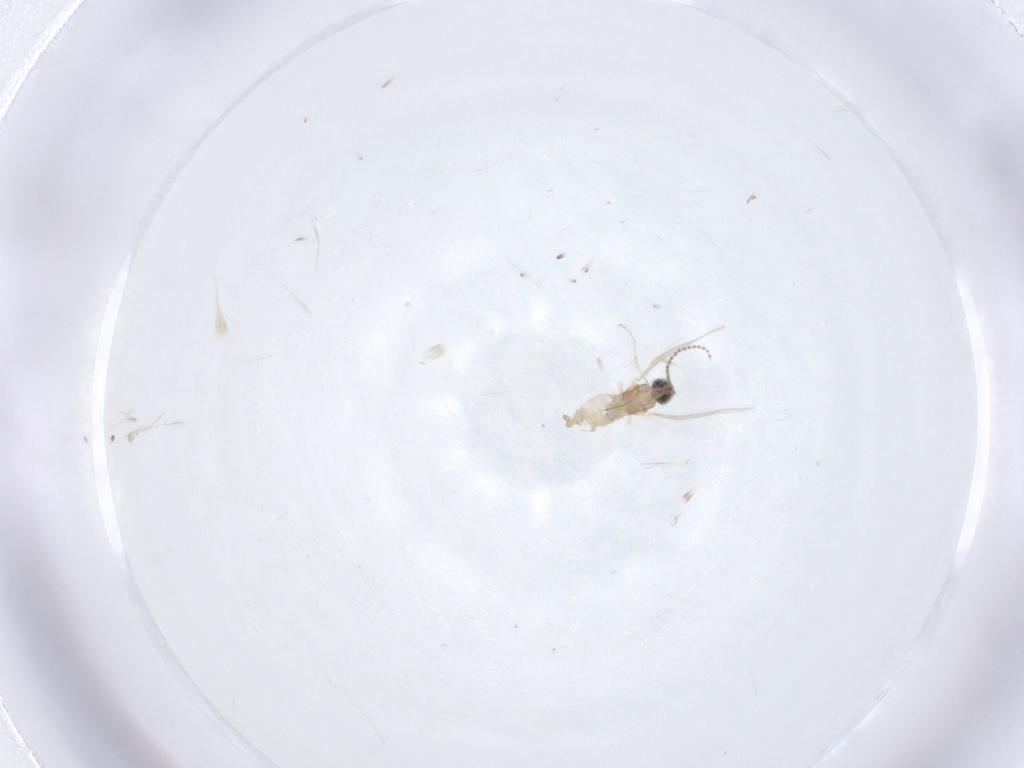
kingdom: Animalia
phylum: Arthropoda
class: Insecta
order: Diptera
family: Cecidomyiidae
